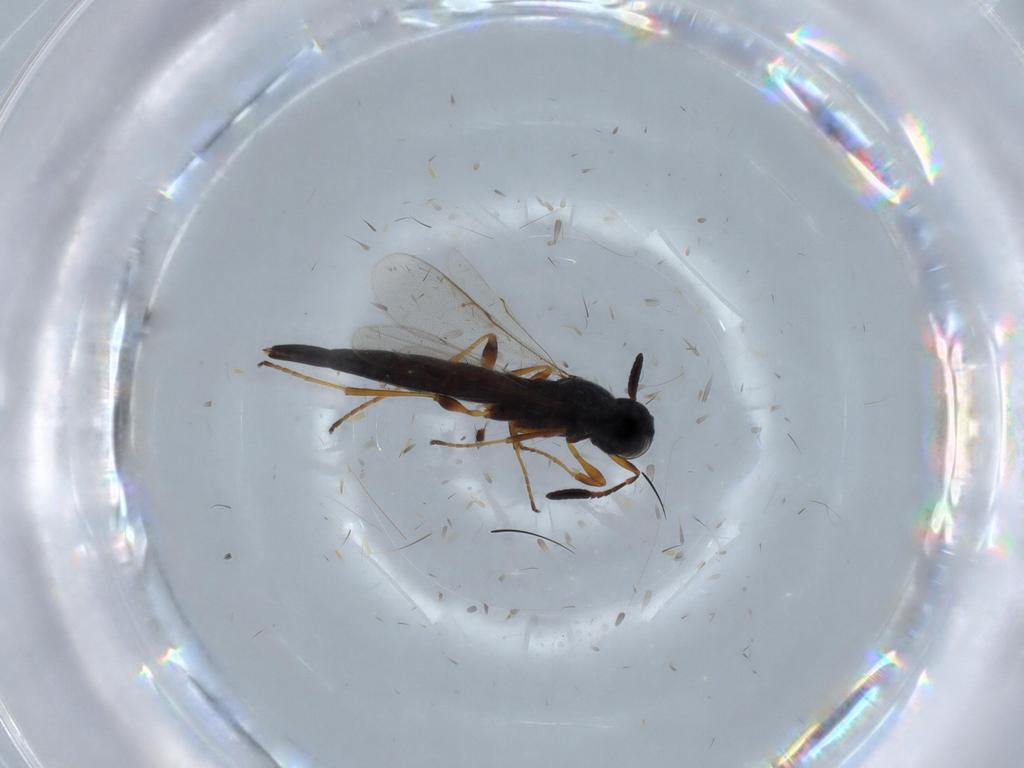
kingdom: Animalia
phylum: Arthropoda
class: Insecta
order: Hymenoptera
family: Scelionidae
